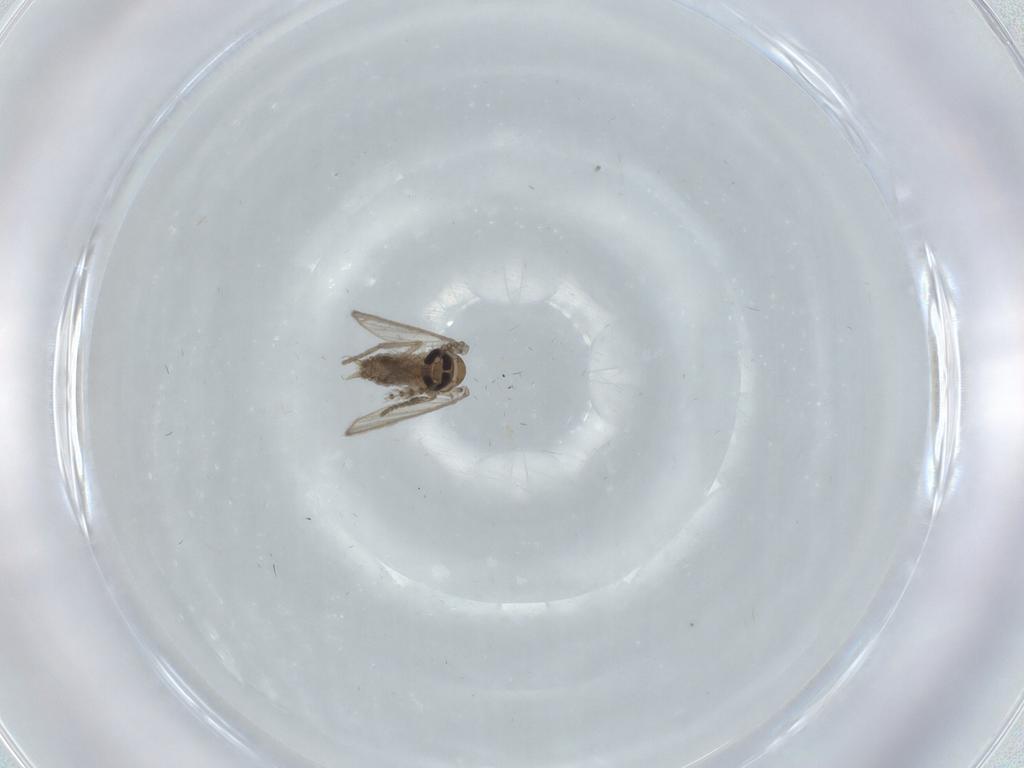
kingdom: Animalia
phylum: Arthropoda
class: Insecta
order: Diptera
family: Psychodidae
